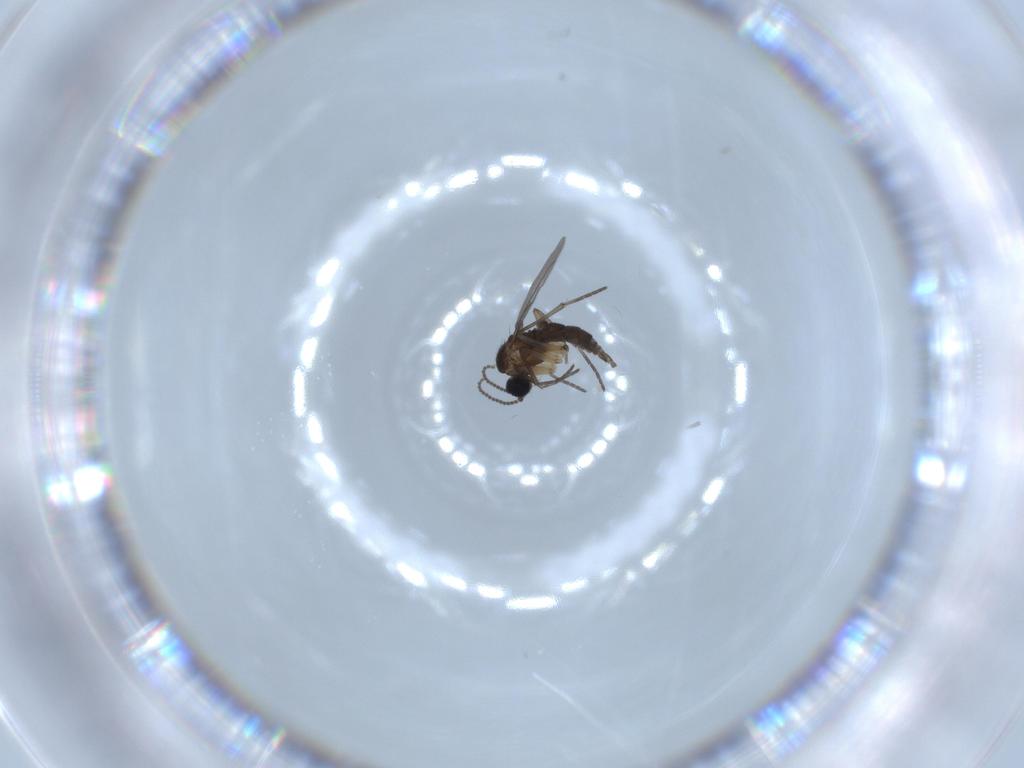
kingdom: Animalia
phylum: Arthropoda
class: Insecta
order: Diptera
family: Sciaridae
